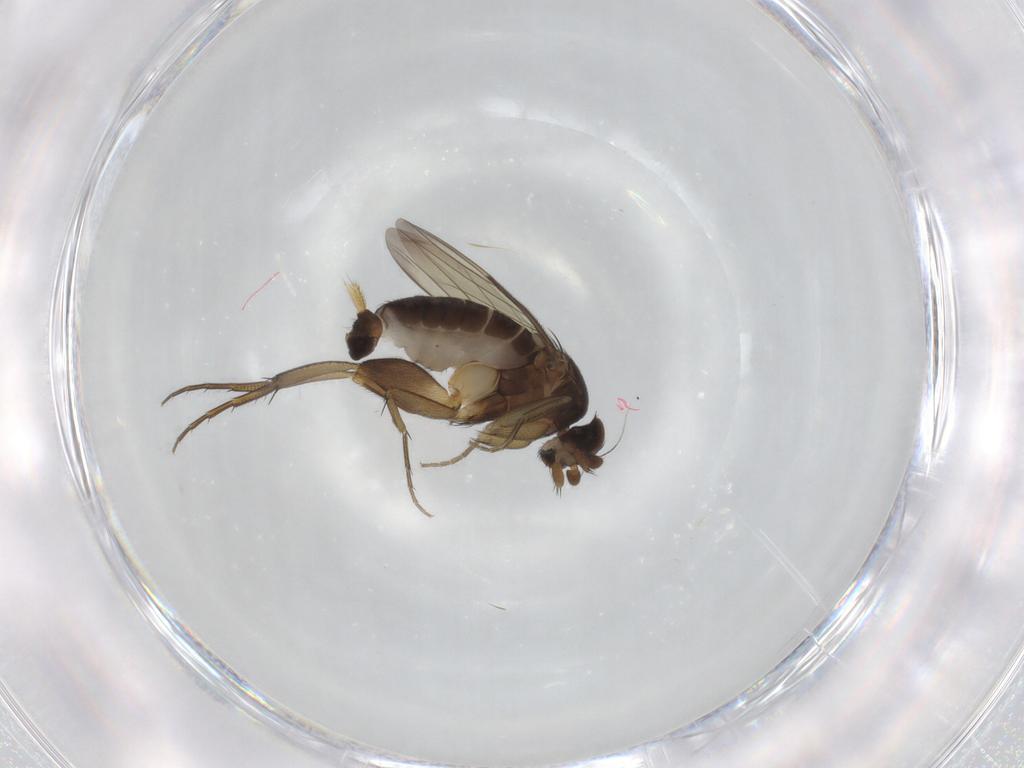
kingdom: Animalia
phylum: Arthropoda
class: Insecta
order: Diptera
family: Phoridae
